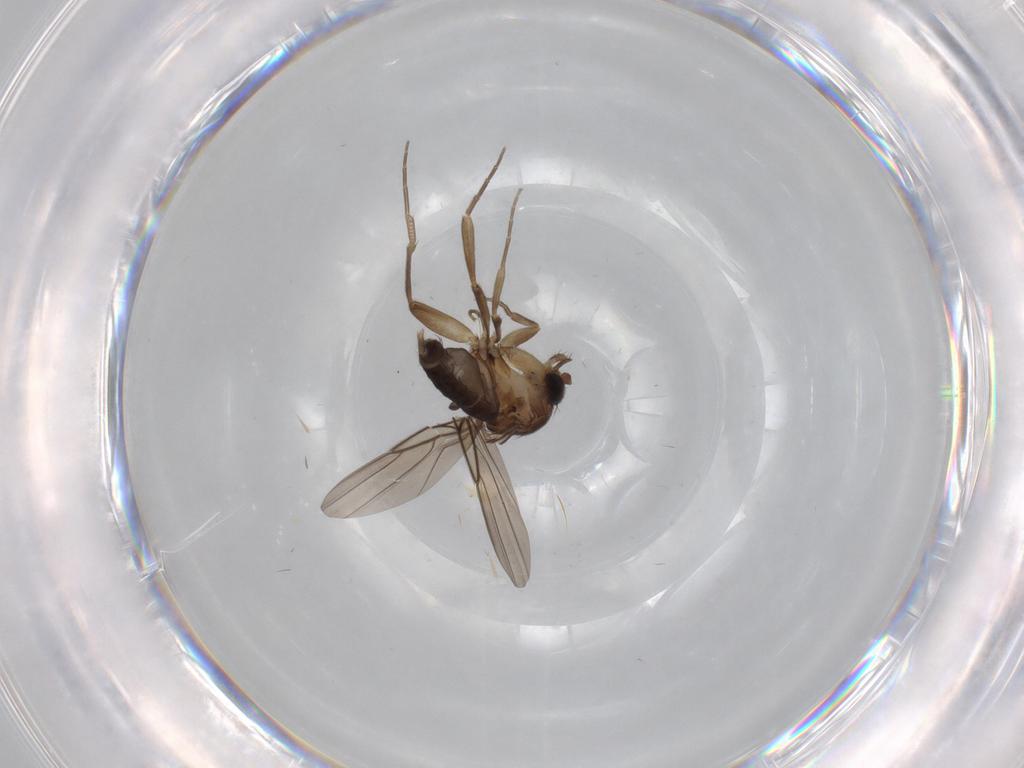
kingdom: Animalia
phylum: Arthropoda
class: Insecta
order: Diptera
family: Phoridae
